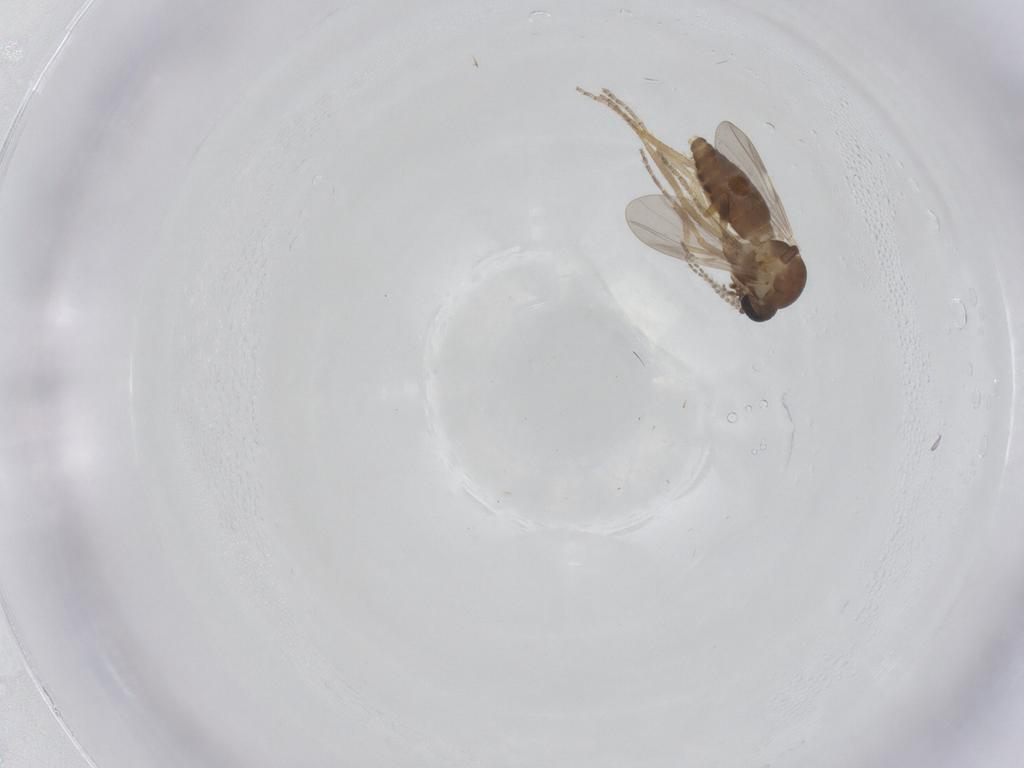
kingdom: Animalia
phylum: Arthropoda
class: Insecta
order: Diptera
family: Ceratopogonidae
